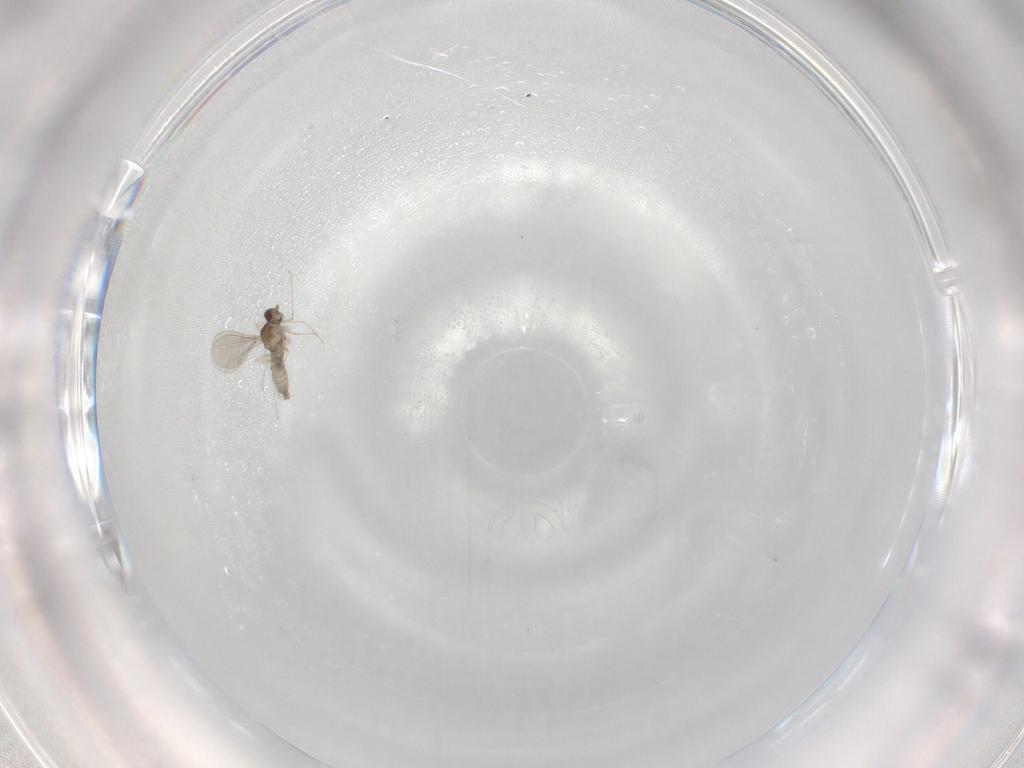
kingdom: Animalia
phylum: Arthropoda
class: Insecta
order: Diptera
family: Cecidomyiidae
